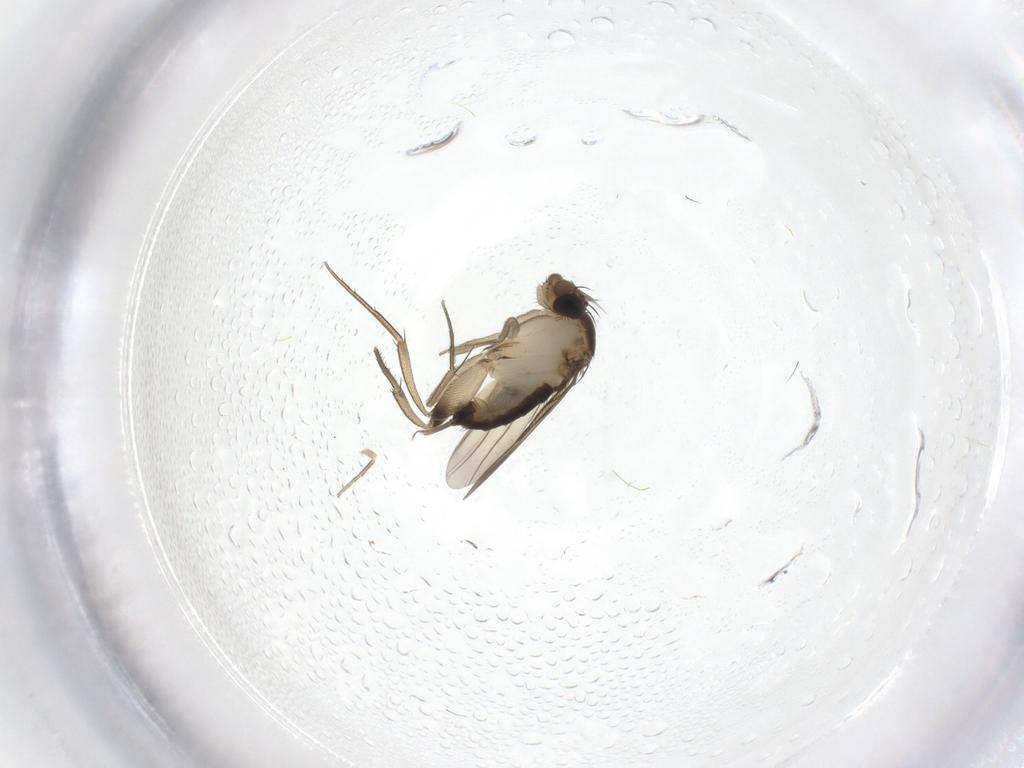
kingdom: Animalia
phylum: Arthropoda
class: Insecta
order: Diptera
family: Phoridae
